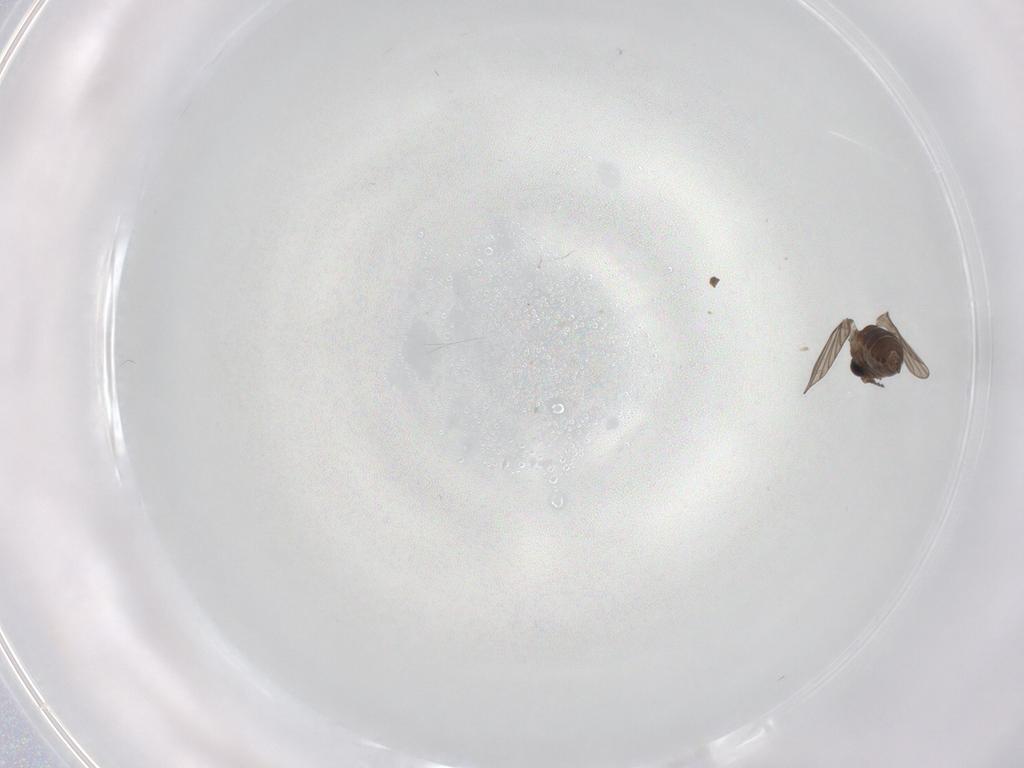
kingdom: Animalia
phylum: Arthropoda
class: Insecta
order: Diptera
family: Psychodidae
